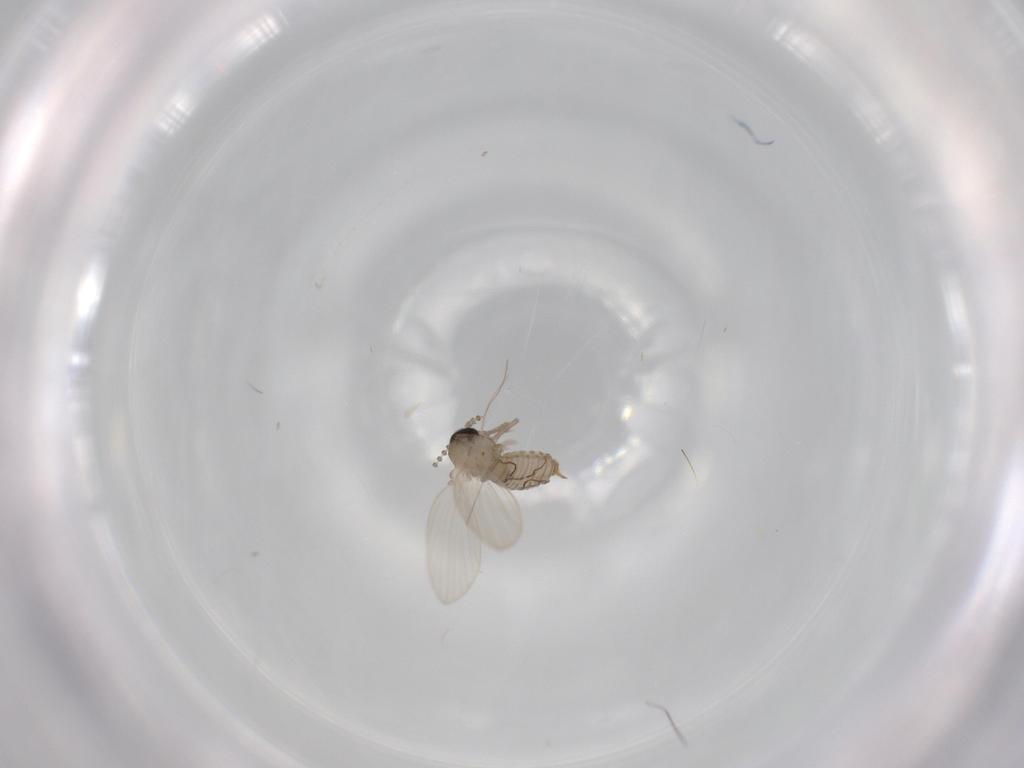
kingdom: Animalia
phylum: Arthropoda
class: Insecta
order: Diptera
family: Psychodidae
